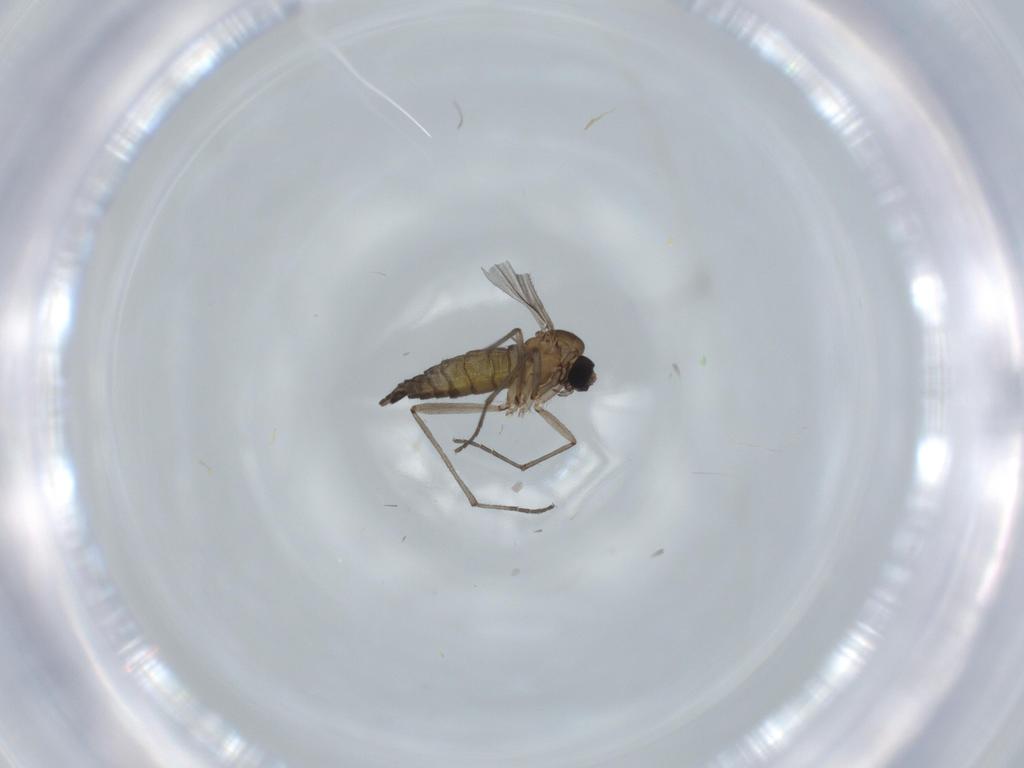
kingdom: Animalia
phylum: Arthropoda
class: Insecta
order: Diptera
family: Sciaridae
